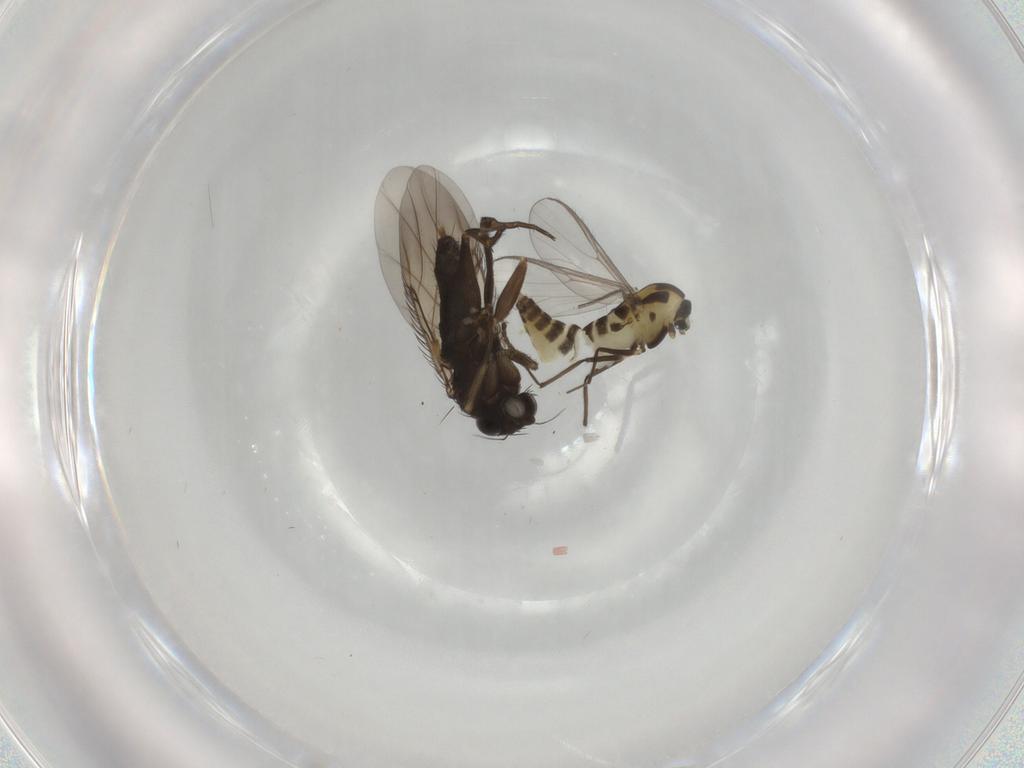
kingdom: Animalia
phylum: Arthropoda
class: Insecta
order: Diptera
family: Phoridae
